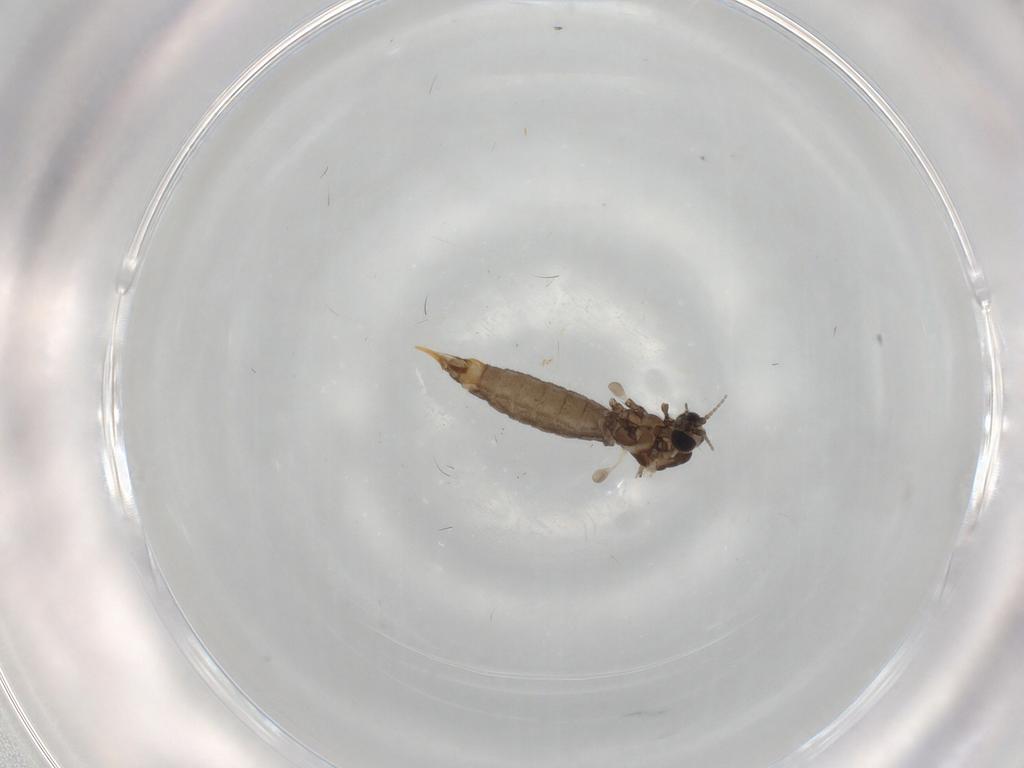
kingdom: Animalia
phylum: Arthropoda
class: Insecta
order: Diptera
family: Limoniidae
